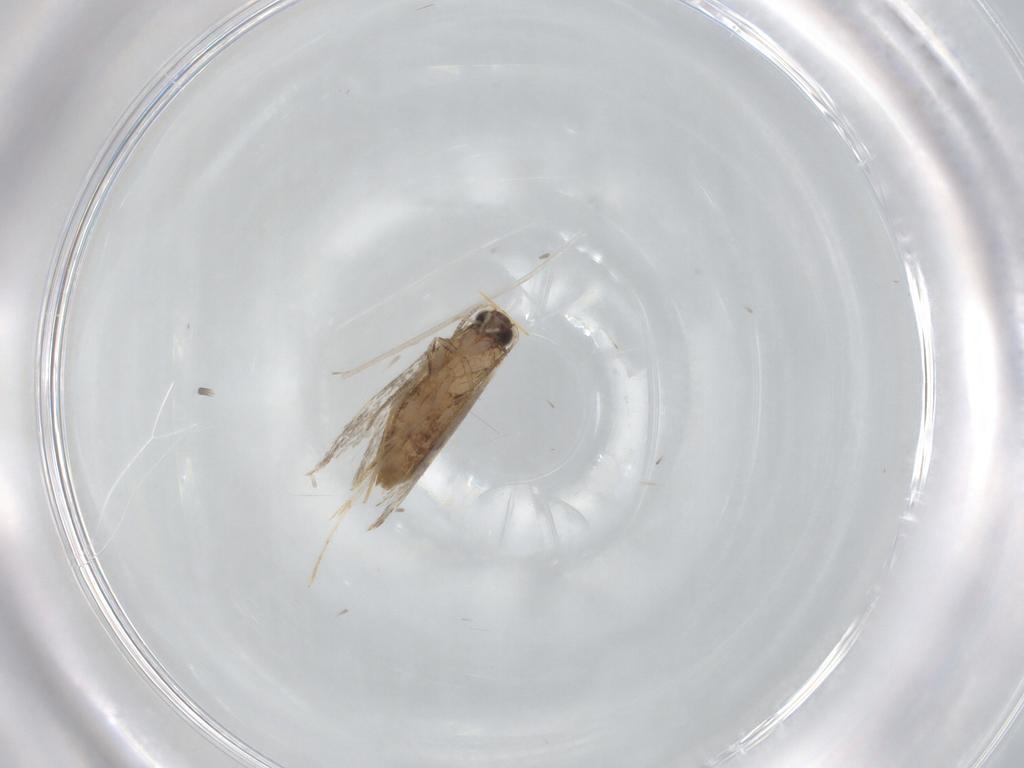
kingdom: Animalia
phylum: Arthropoda
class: Insecta
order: Lepidoptera
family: Tineidae
